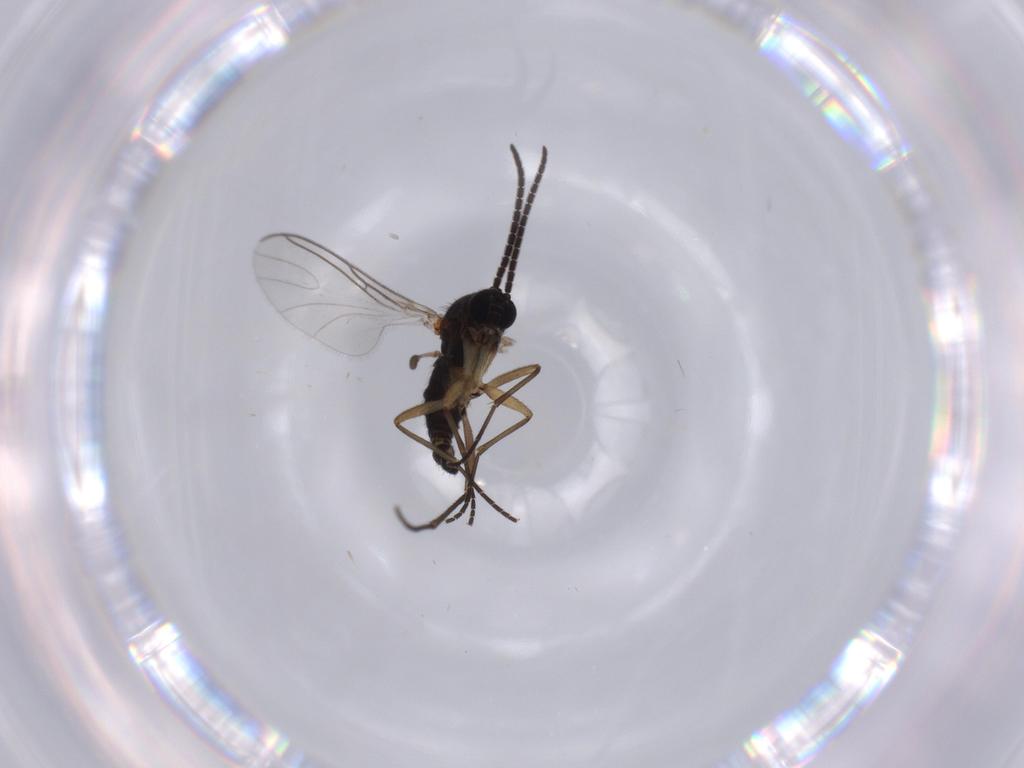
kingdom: Animalia
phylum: Arthropoda
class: Insecta
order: Diptera
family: Sciaridae
